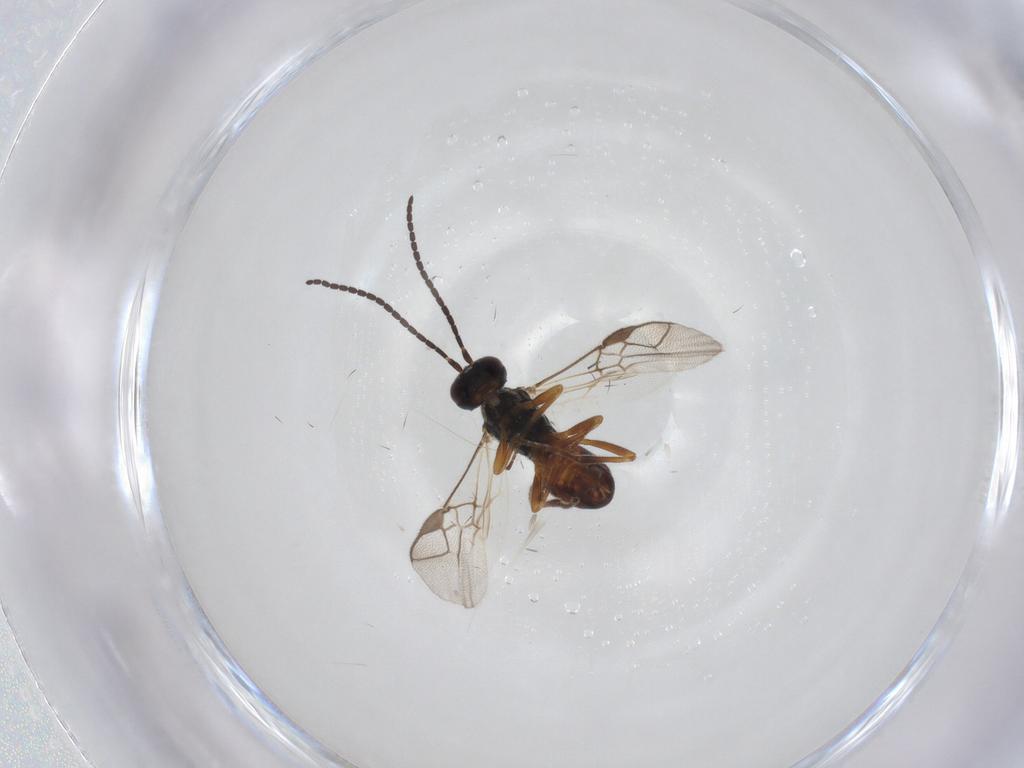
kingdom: Animalia
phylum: Arthropoda
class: Insecta
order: Hymenoptera
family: Braconidae
